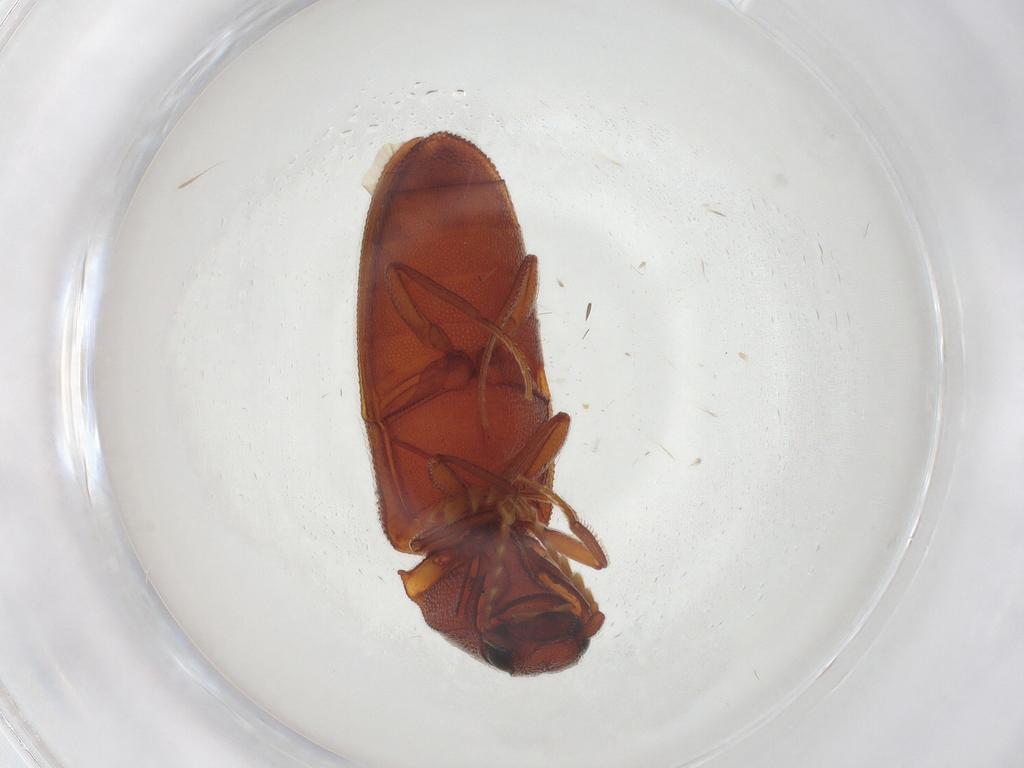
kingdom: Animalia
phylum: Arthropoda
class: Insecta
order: Coleoptera
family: Elateridae
